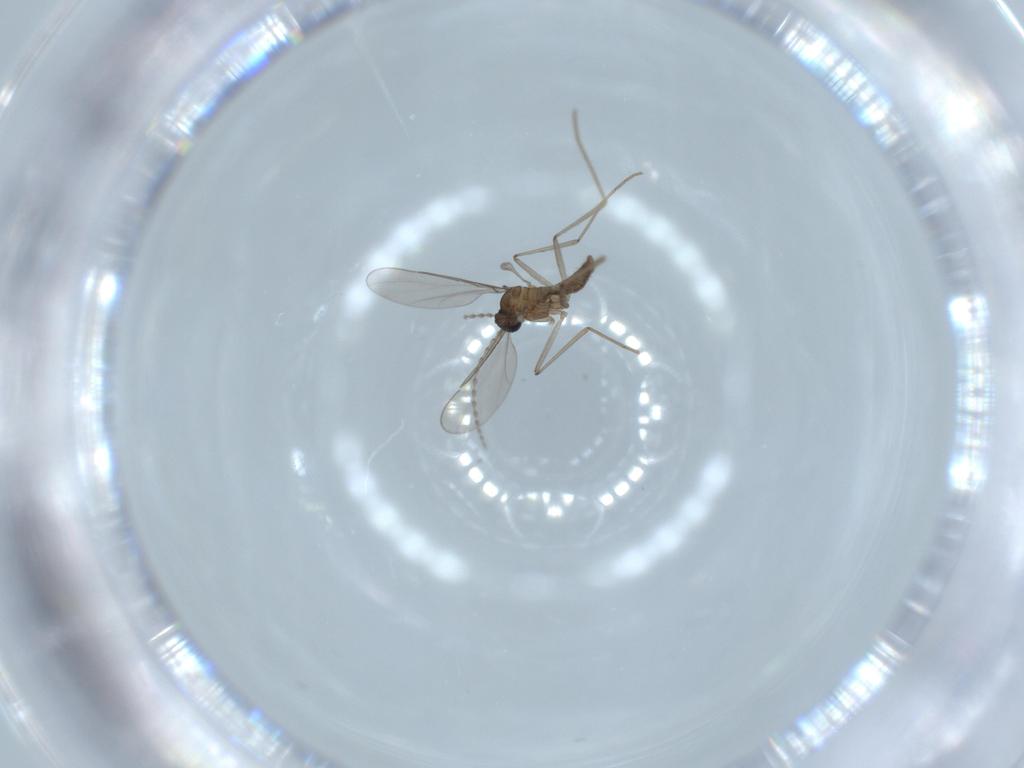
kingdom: Animalia
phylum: Arthropoda
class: Insecta
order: Diptera
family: Cecidomyiidae
